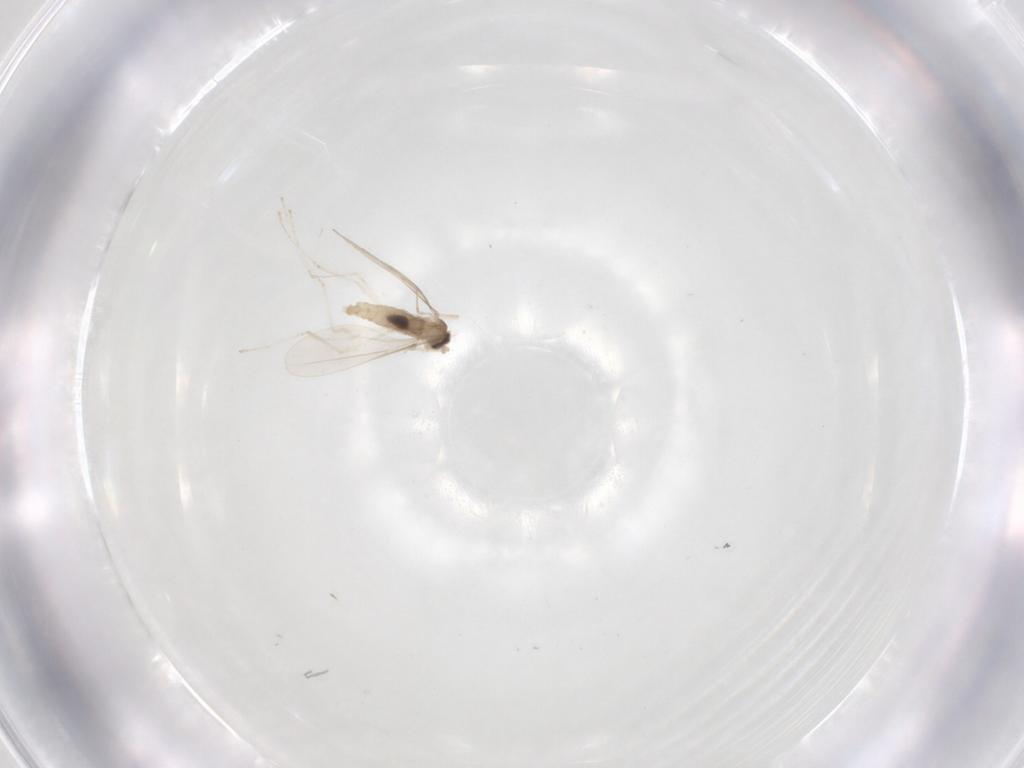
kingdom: Animalia
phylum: Arthropoda
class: Insecta
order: Diptera
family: Cecidomyiidae
